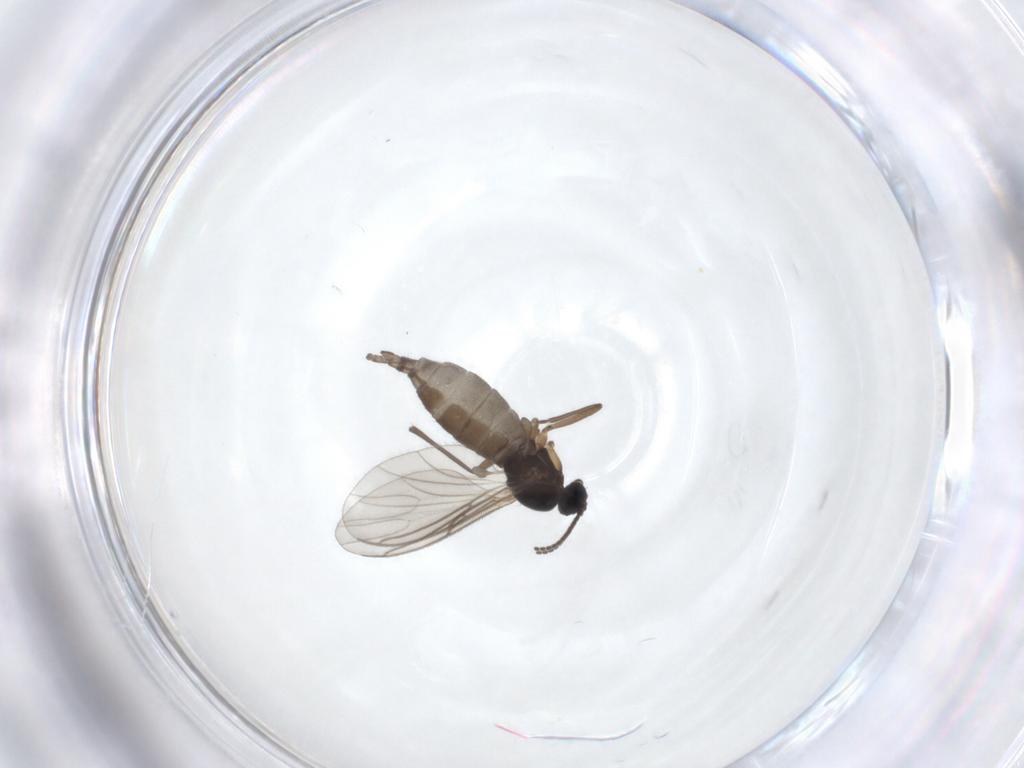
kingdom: Animalia
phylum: Arthropoda
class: Insecta
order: Diptera
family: Sciaridae
